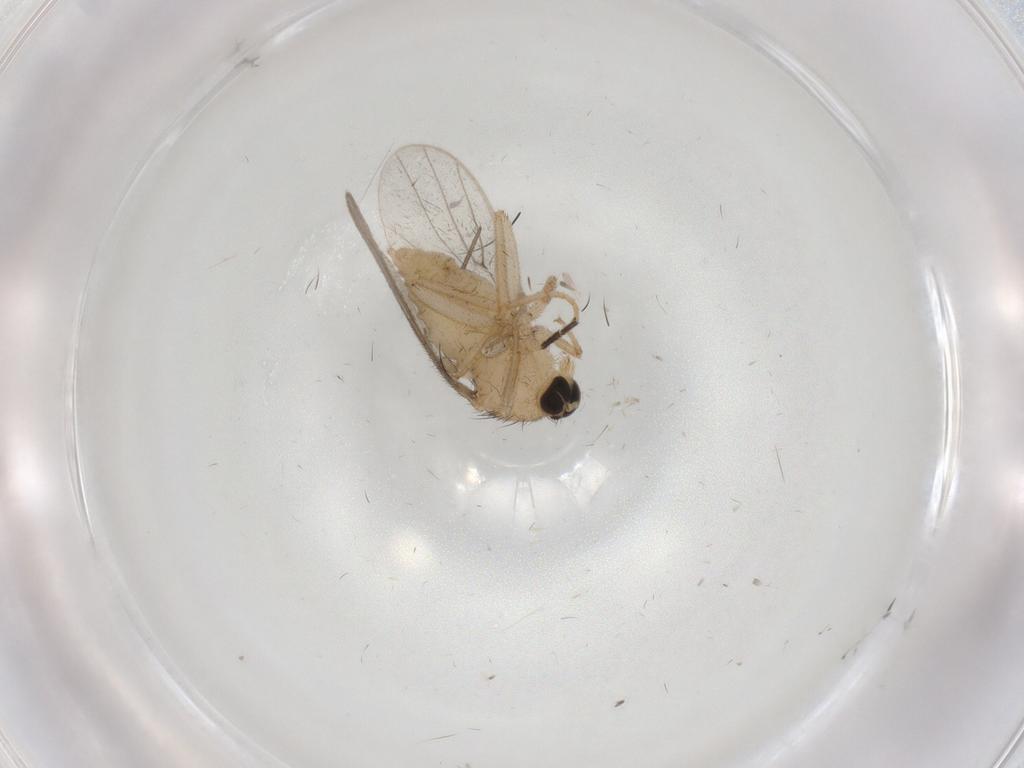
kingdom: Animalia
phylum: Arthropoda
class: Insecta
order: Diptera
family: Hybotidae
